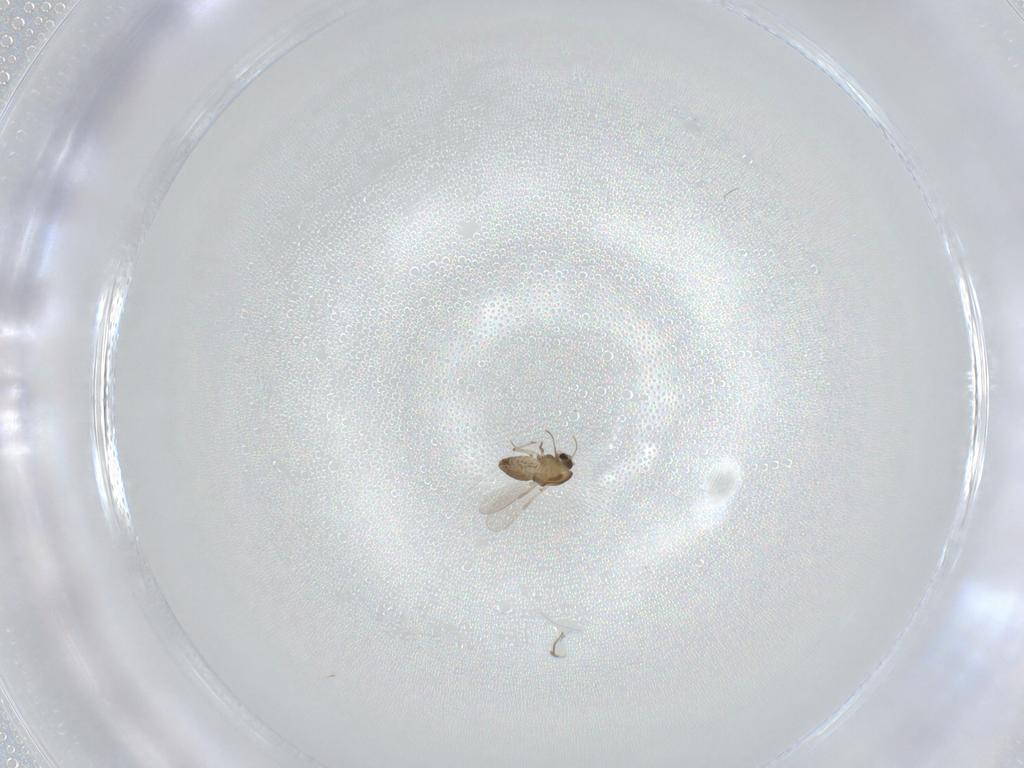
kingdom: Animalia
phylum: Arthropoda
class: Insecta
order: Diptera
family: Chironomidae
